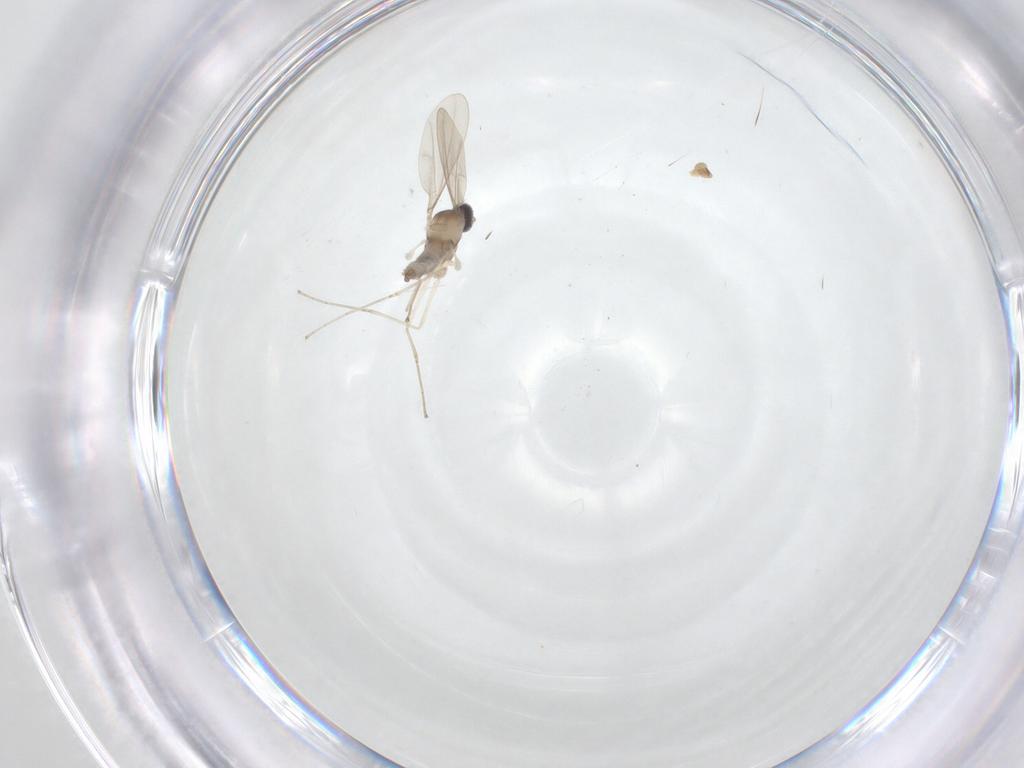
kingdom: Animalia
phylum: Arthropoda
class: Insecta
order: Diptera
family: Cecidomyiidae
